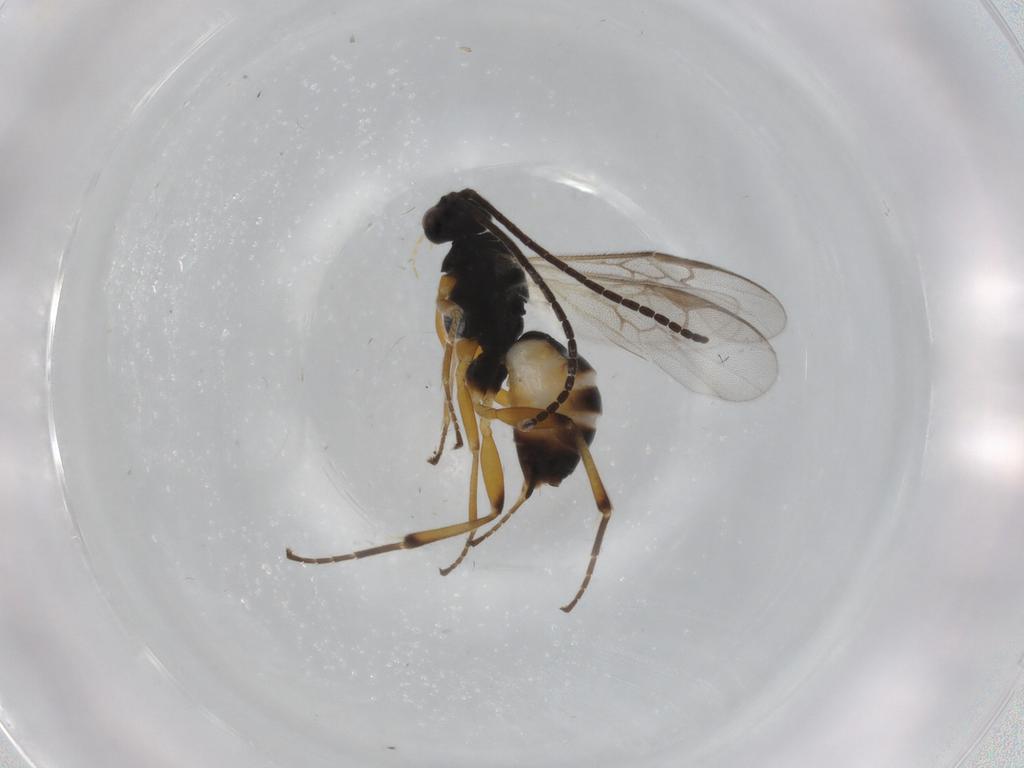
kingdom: Animalia
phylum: Arthropoda
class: Insecta
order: Hymenoptera
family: Braconidae
